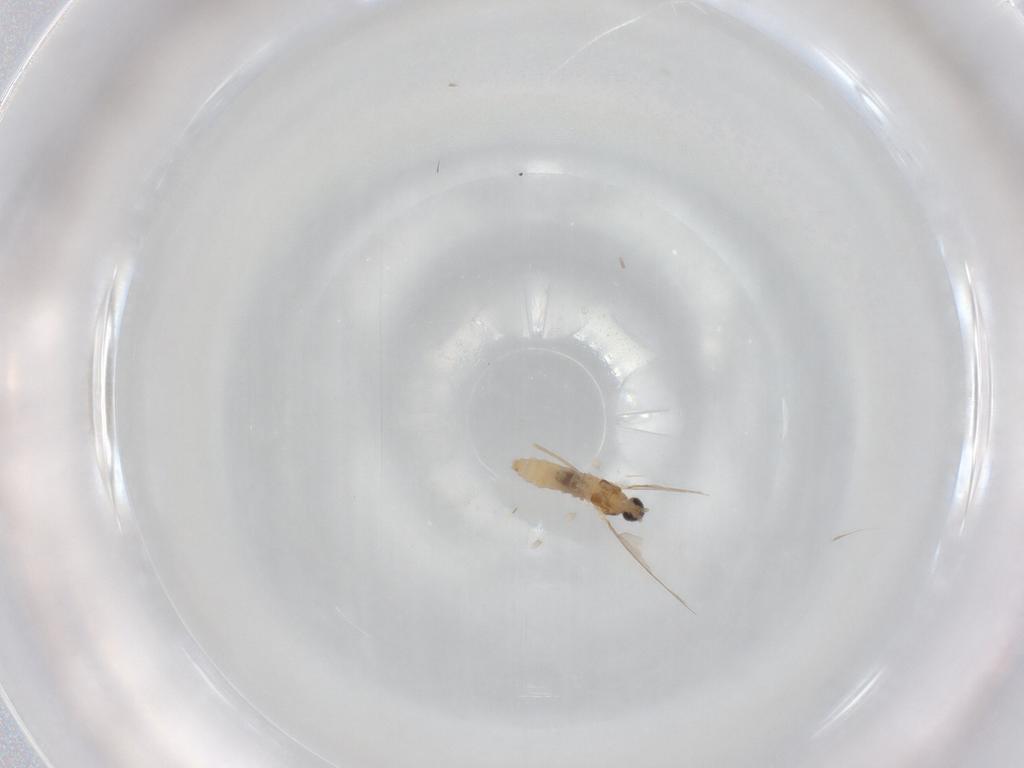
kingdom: Animalia
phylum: Arthropoda
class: Insecta
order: Diptera
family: Cecidomyiidae
